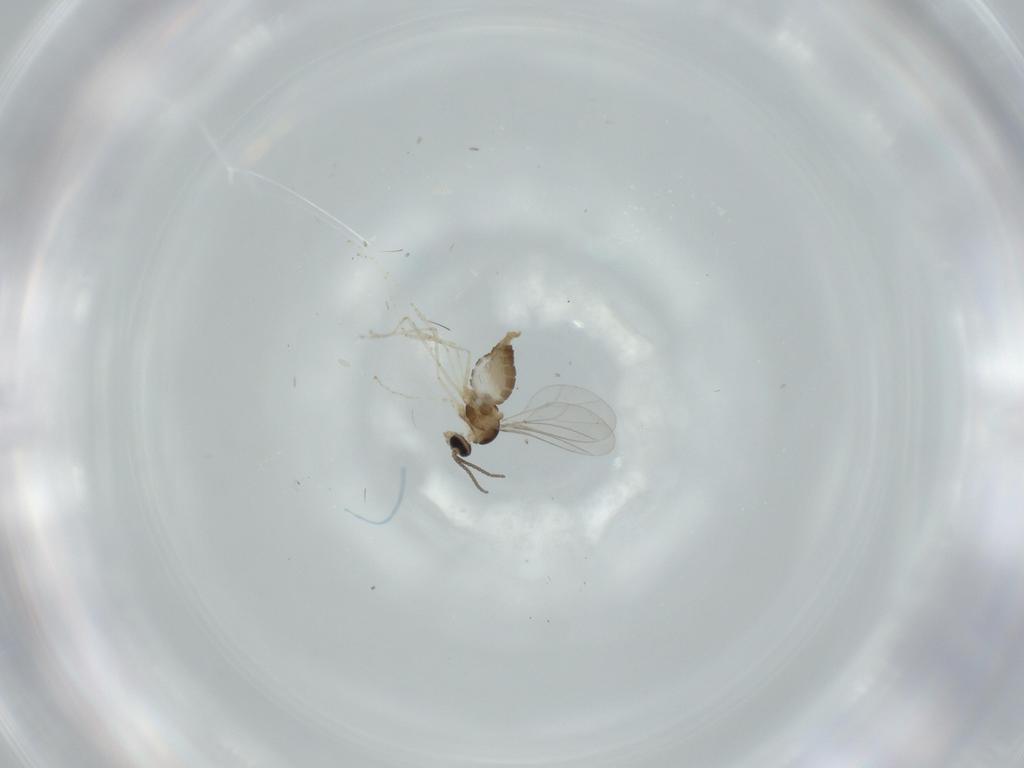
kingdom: Animalia
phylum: Arthropoda
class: Insecta
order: Diptera
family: Cecidomyiidae
